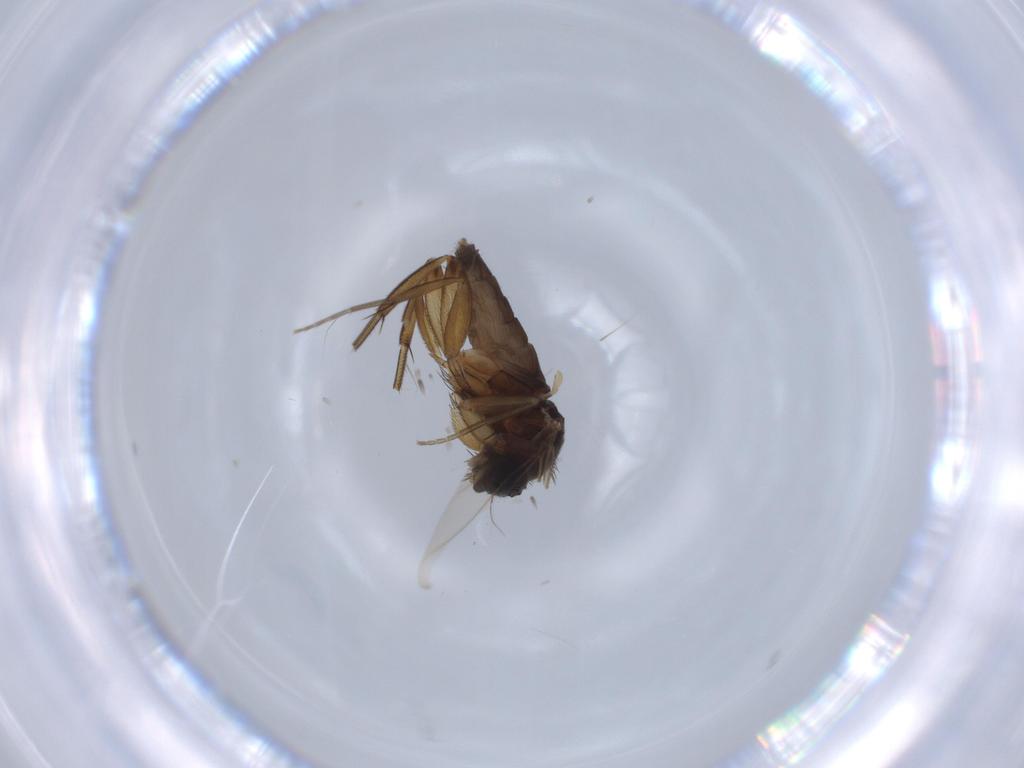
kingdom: Animalia
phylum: Arthropoda
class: Insecta
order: Diptera
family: Phoridae
